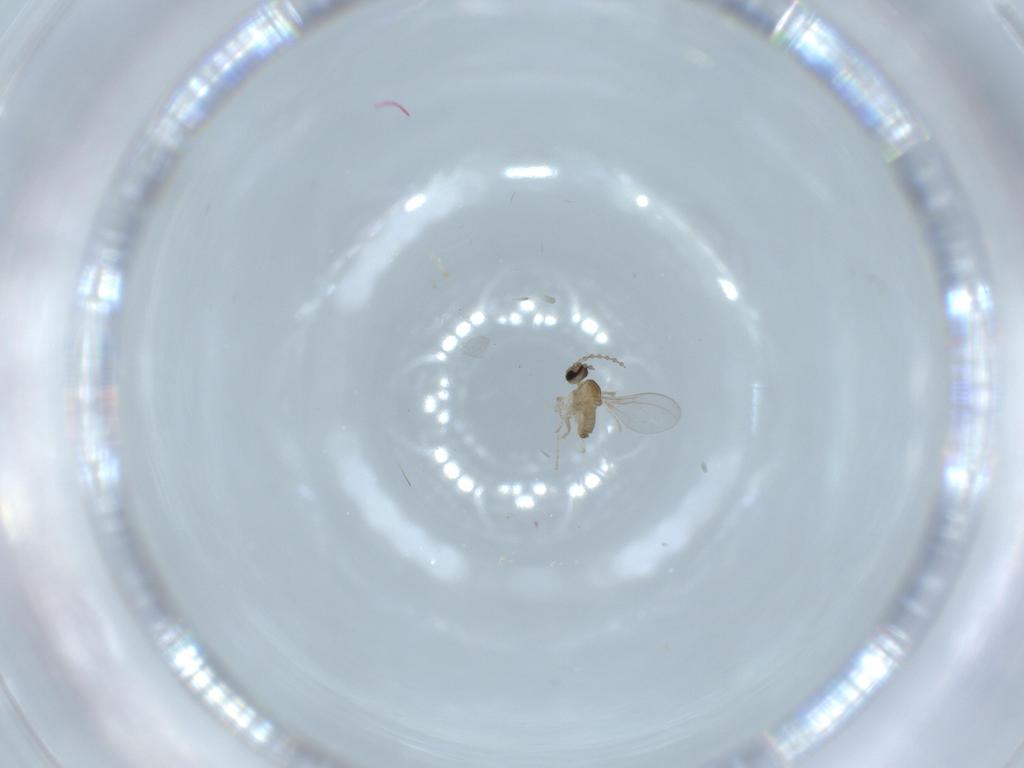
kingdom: Animalia
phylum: Arthropoda
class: Insecta
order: Diptera
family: Cecidomyiidae
